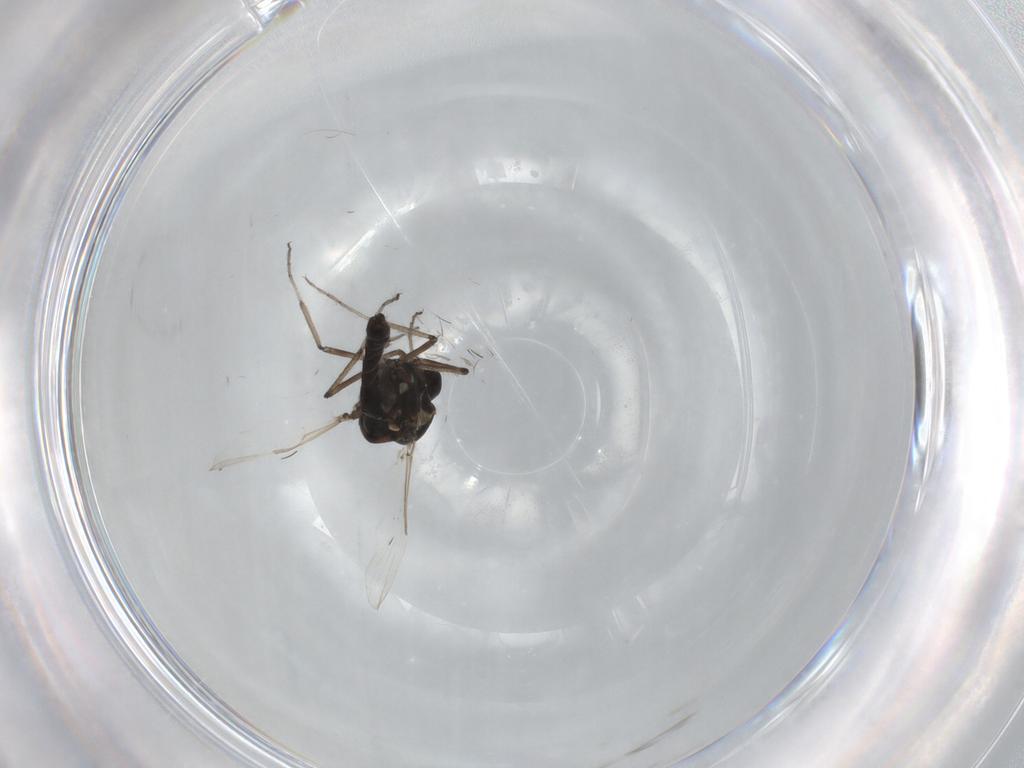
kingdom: Animalia
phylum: Arthropoda
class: Insecta
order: Diptera
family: Ceratopogonidae
